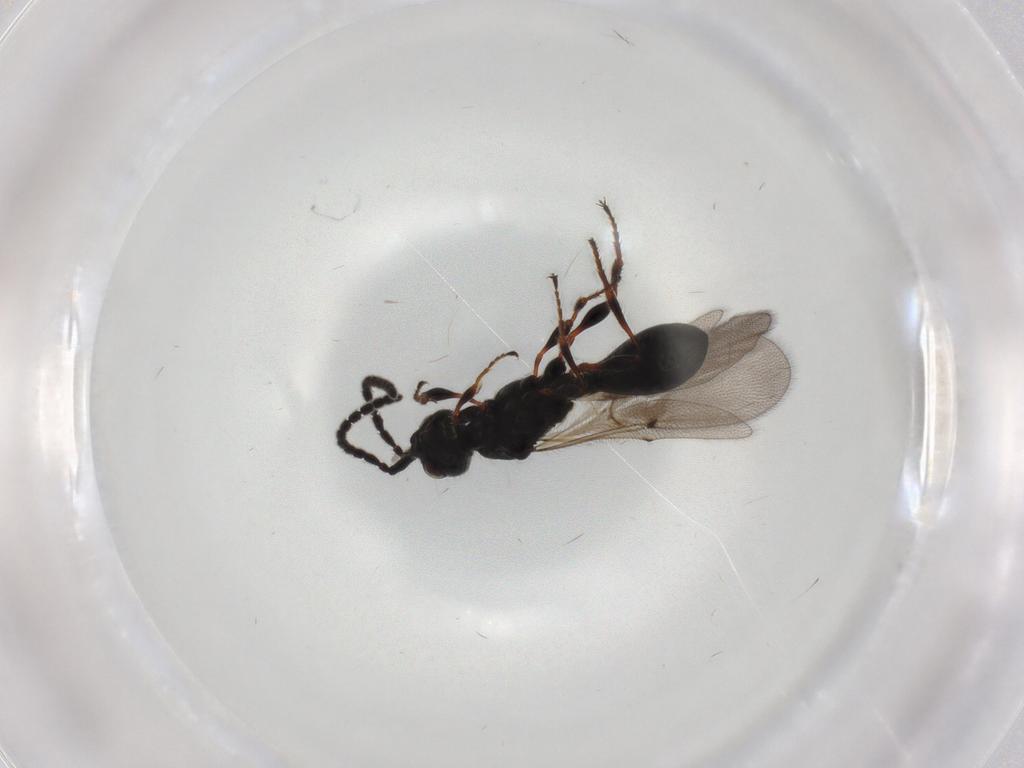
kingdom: Animalia
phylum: Arthropoda
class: Insecta
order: Hymenoptera
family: Diapriidae
